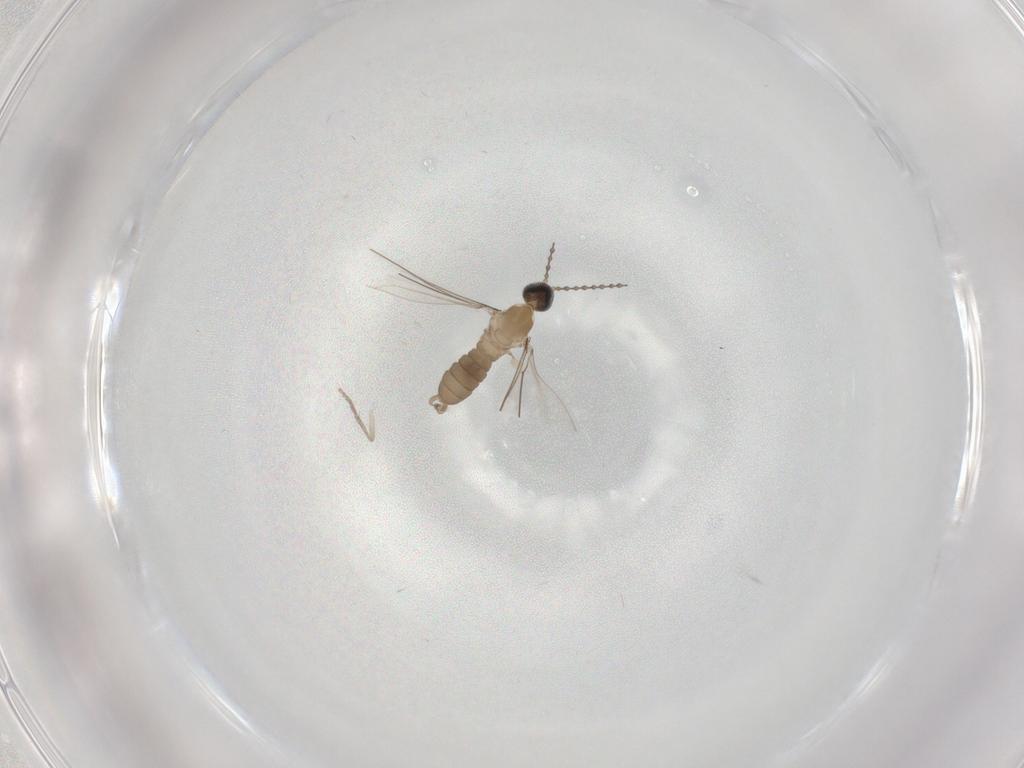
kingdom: Animalia
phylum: Arthropoda
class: Insecta
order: Diptera
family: Cecidomyiidae
